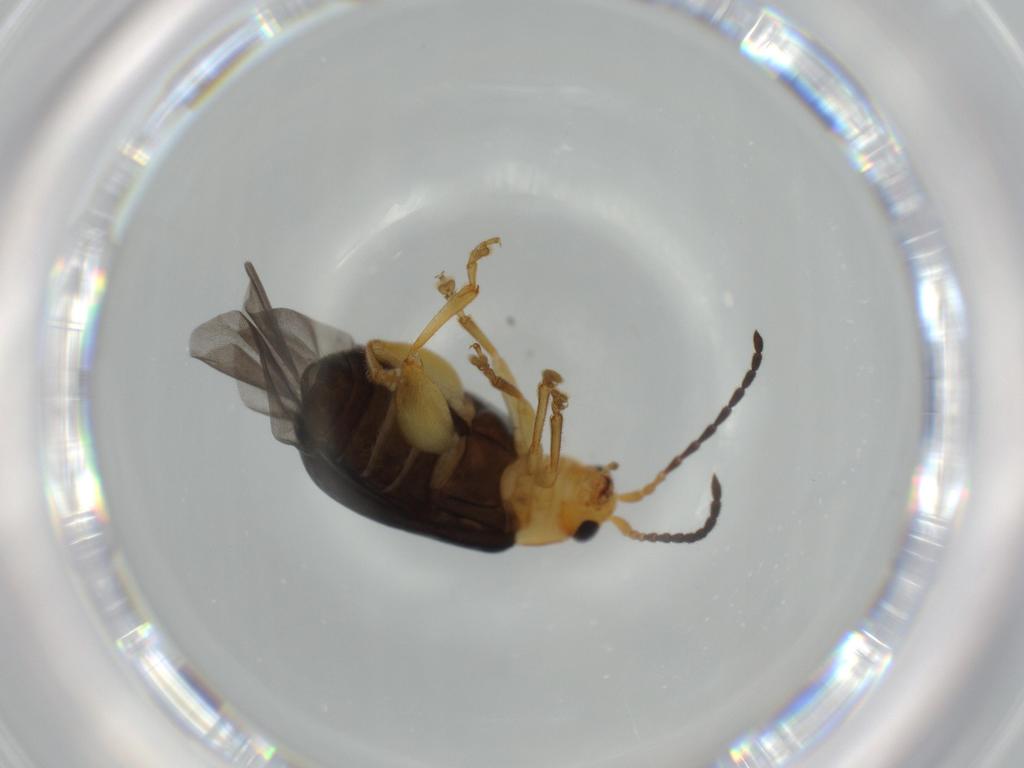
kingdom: Animalia
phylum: Arthropoda
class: Insecta
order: Coleoptera
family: Chrysomelidae
